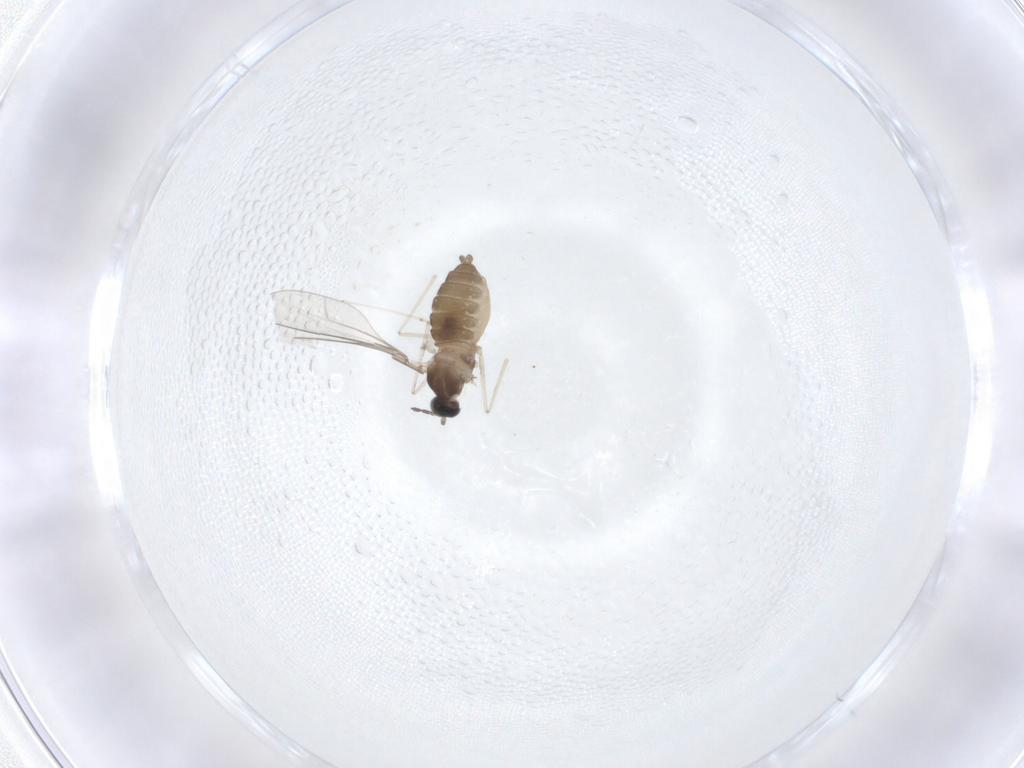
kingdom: Animalia
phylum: Arthropoda
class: Insecta
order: Diptera
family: Cecidomyiidae
